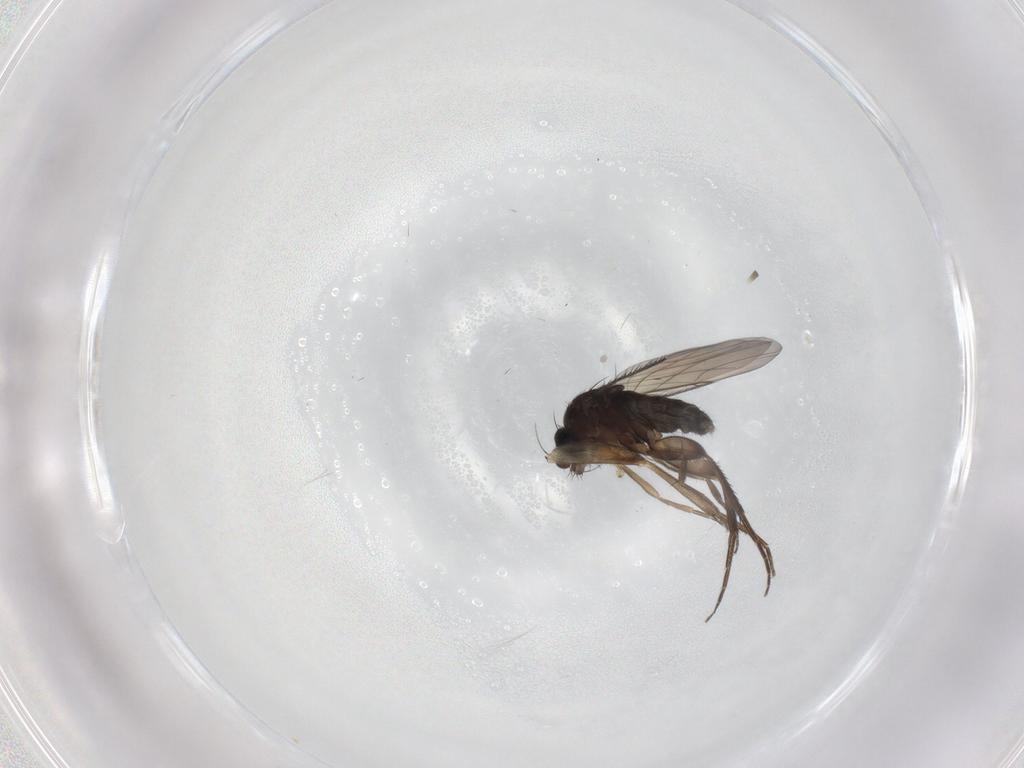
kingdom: Animalia
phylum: Arthropoda
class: Insecta
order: Diptera
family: Phoridae
